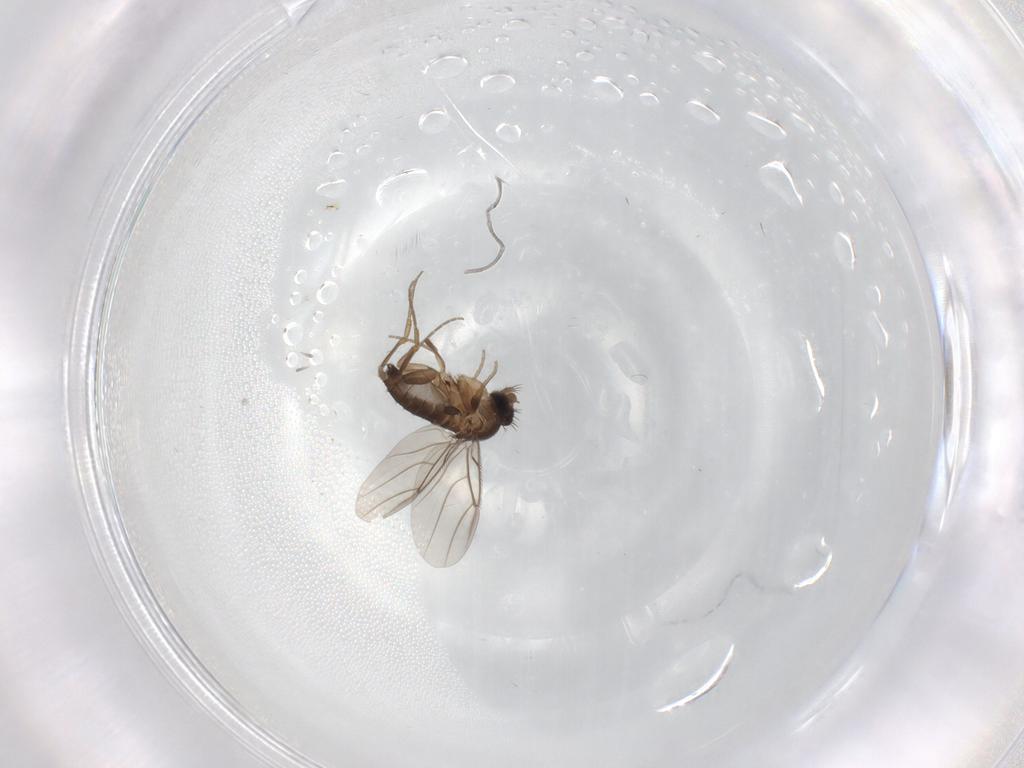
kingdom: Animalia
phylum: Arthropoda
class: Insecta
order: Diptera
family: Phoridae
